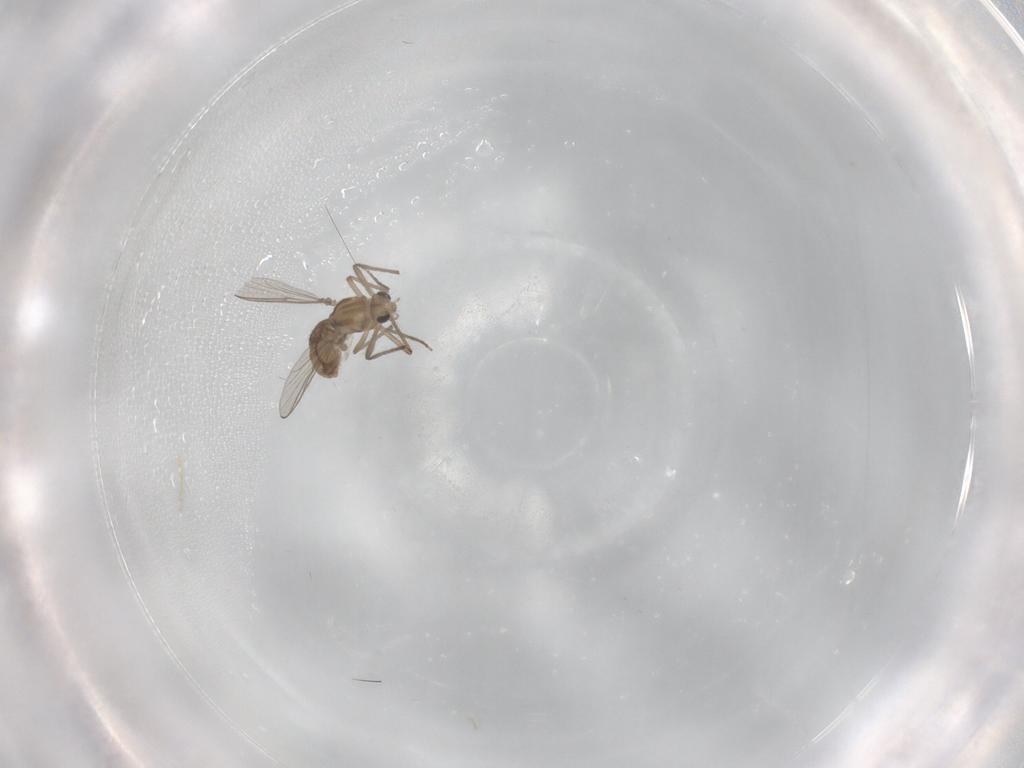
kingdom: Animalia
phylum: Arthropoda
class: Insecta
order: Diptera
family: Chironomidae
